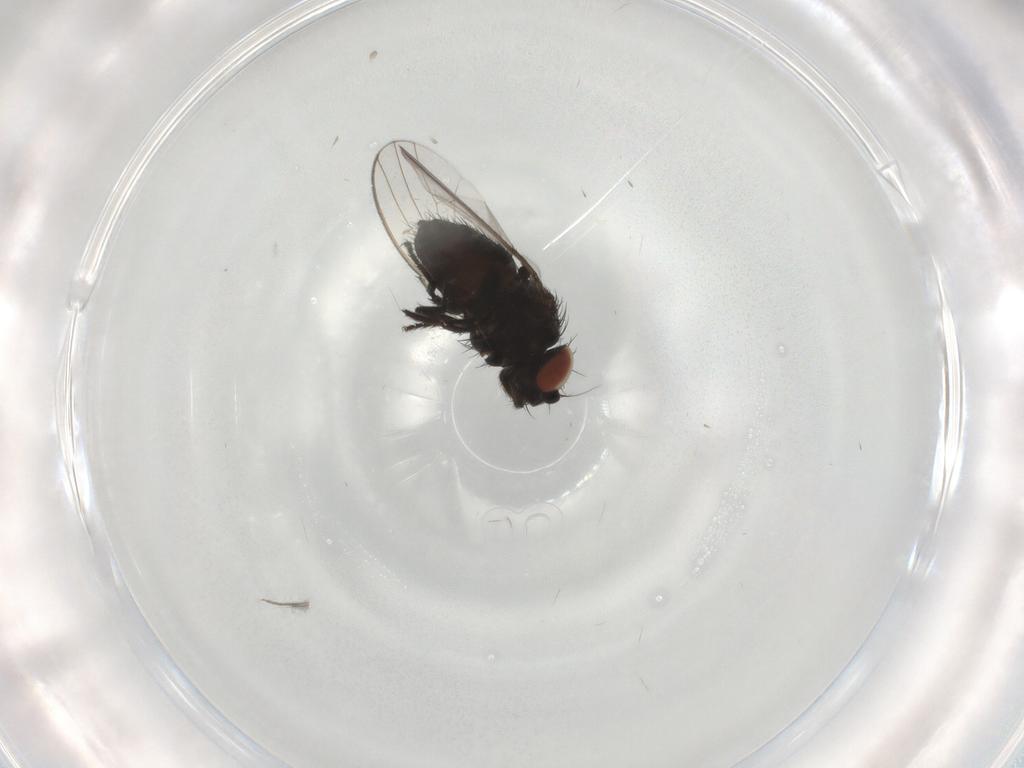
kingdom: Animalia
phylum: Arthropoda
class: Insecta
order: Diptera
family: Milichiidae
